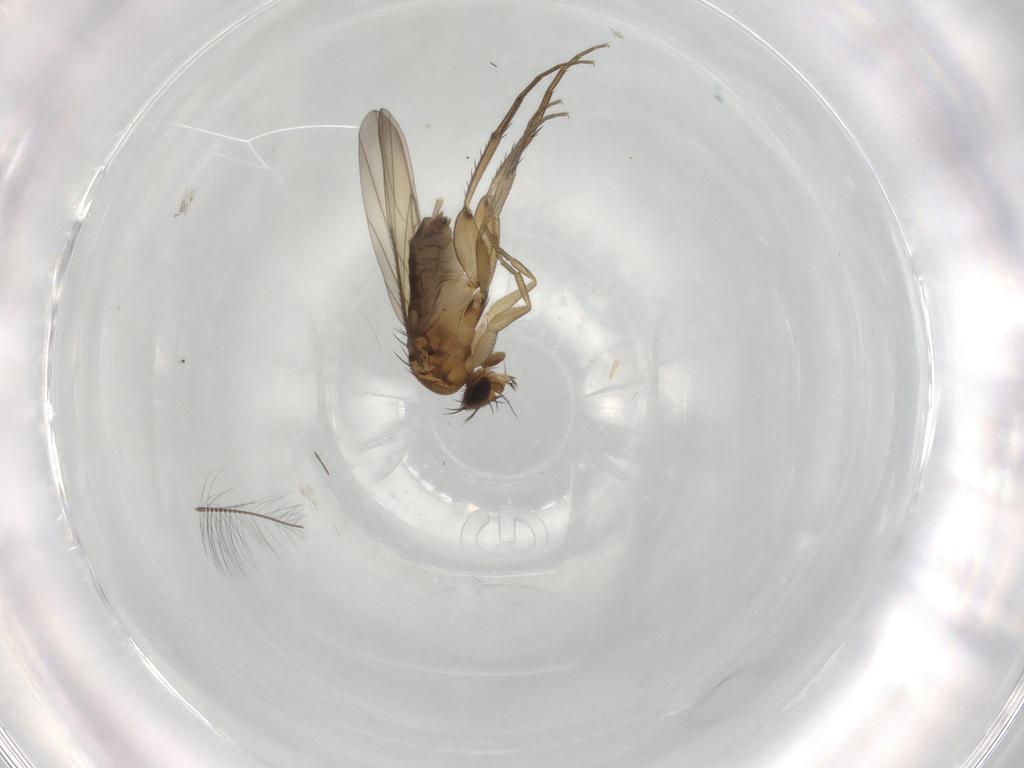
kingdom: Animalia
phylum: Arthropoda
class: Insecta
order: Diptera
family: Phoridae
